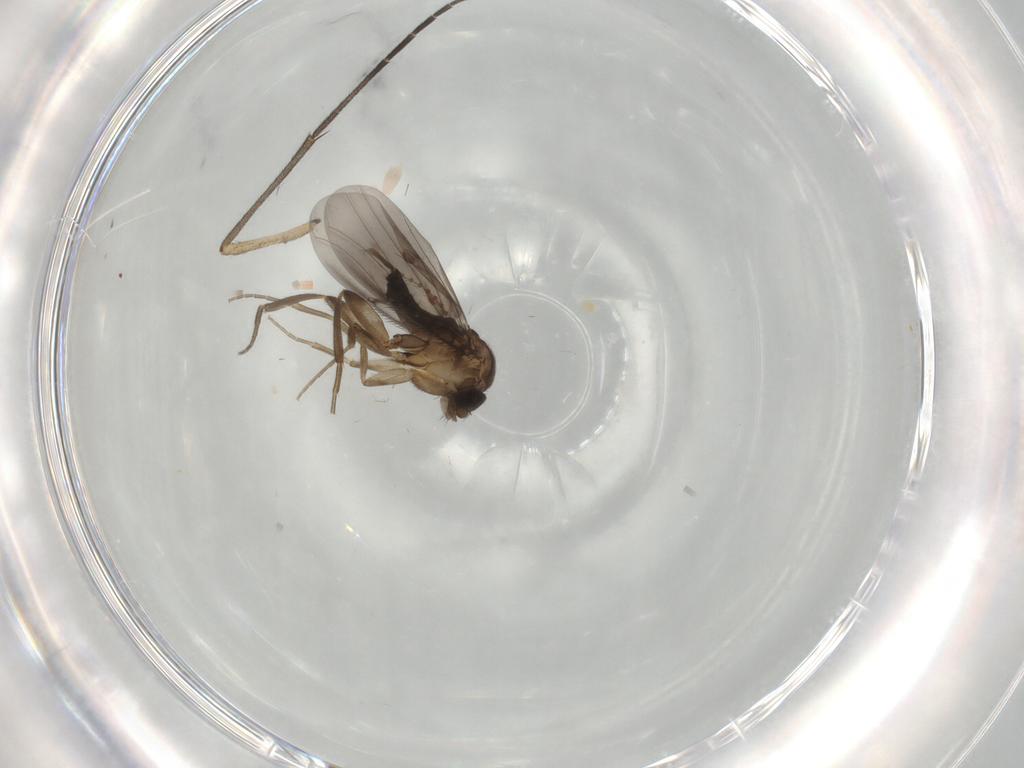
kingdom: Animalia
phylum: Arthropoda
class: Insecta
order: Diptera
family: Phoridae
